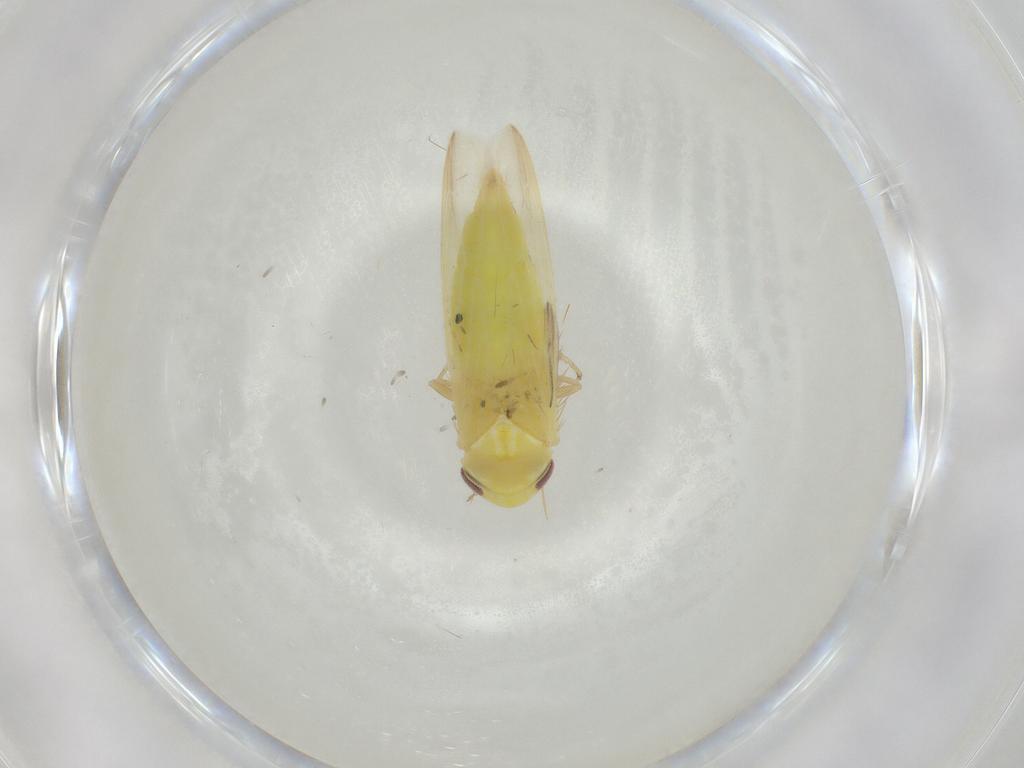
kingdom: Animalia
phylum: Arthropoda
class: Insecta
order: Hemiptera
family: Cicadellidae
